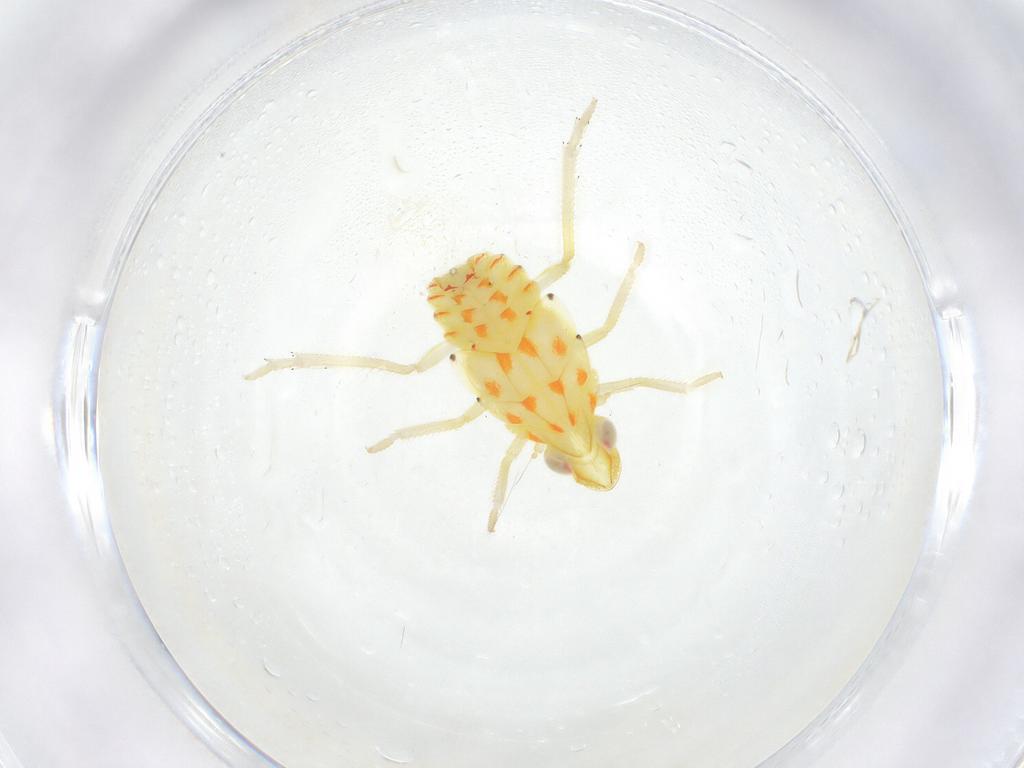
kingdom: Animalia
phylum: Arthropoda
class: Insecta
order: Hemiptera
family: Tropiduchidae
